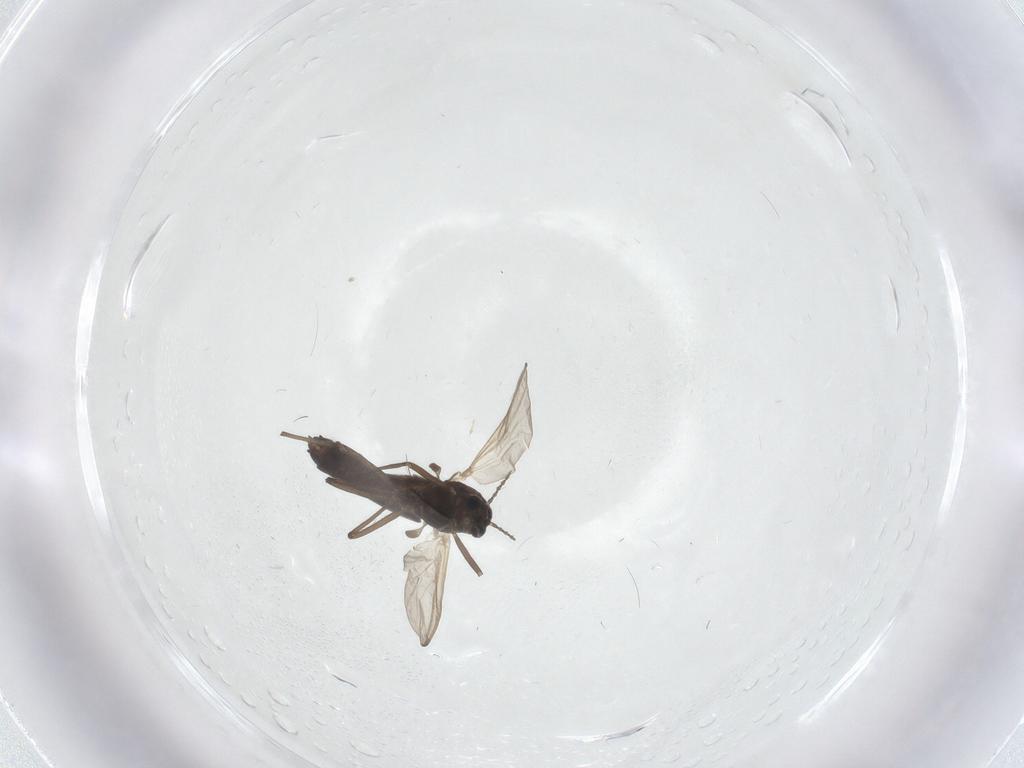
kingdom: Animalia
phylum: Arthropoda
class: Insecta
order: Diptera
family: Chironomidae
